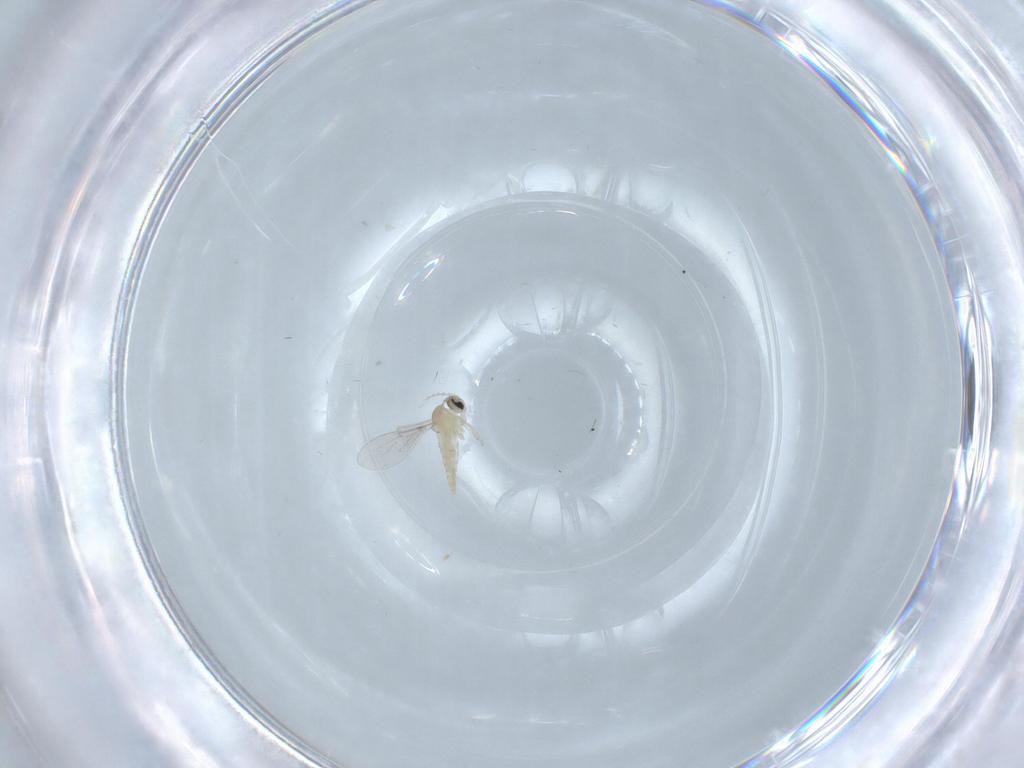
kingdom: Animalia
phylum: Arthropoda
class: Insecta
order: Diptera
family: Cecidomyiidae
